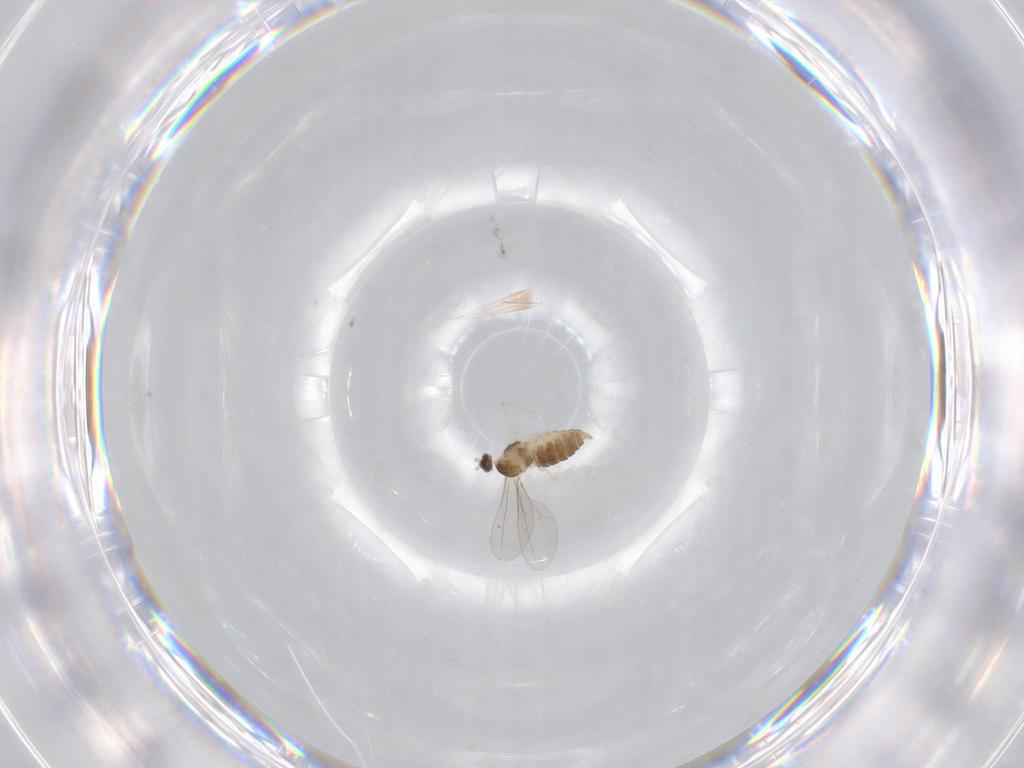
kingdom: Animalia
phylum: Arthropoda
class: Insecta
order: Diptera
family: Cecidomyiidae
